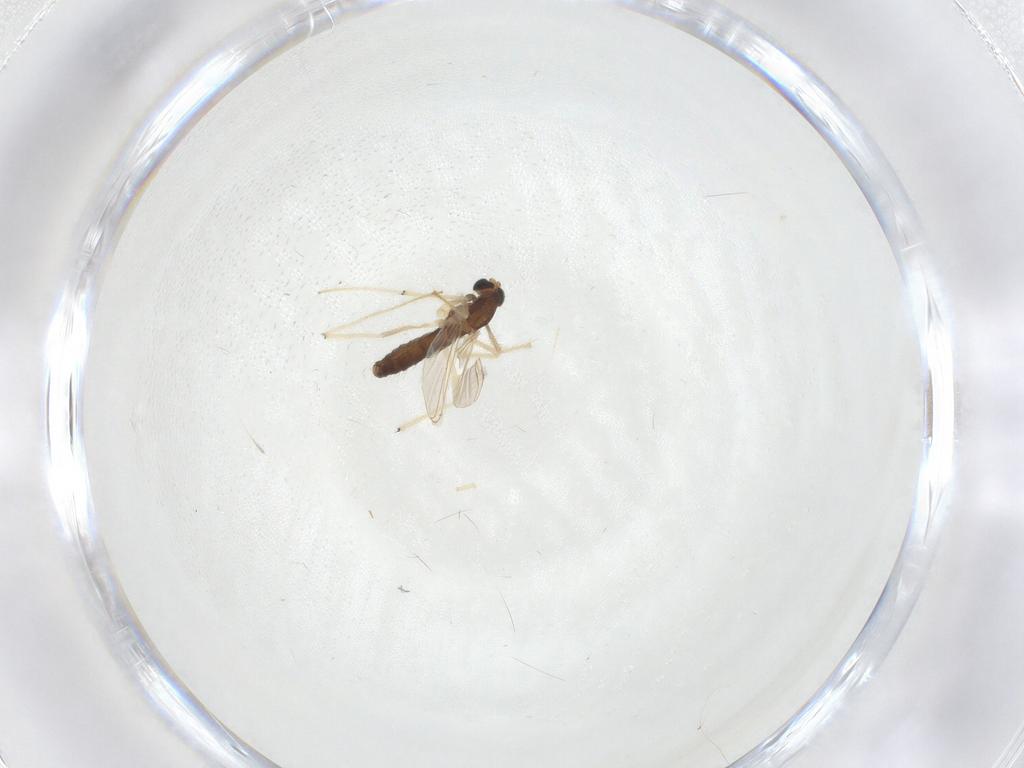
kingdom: Animalia
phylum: Arthropoda
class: Insecta
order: Diptera
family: Chironomidae
